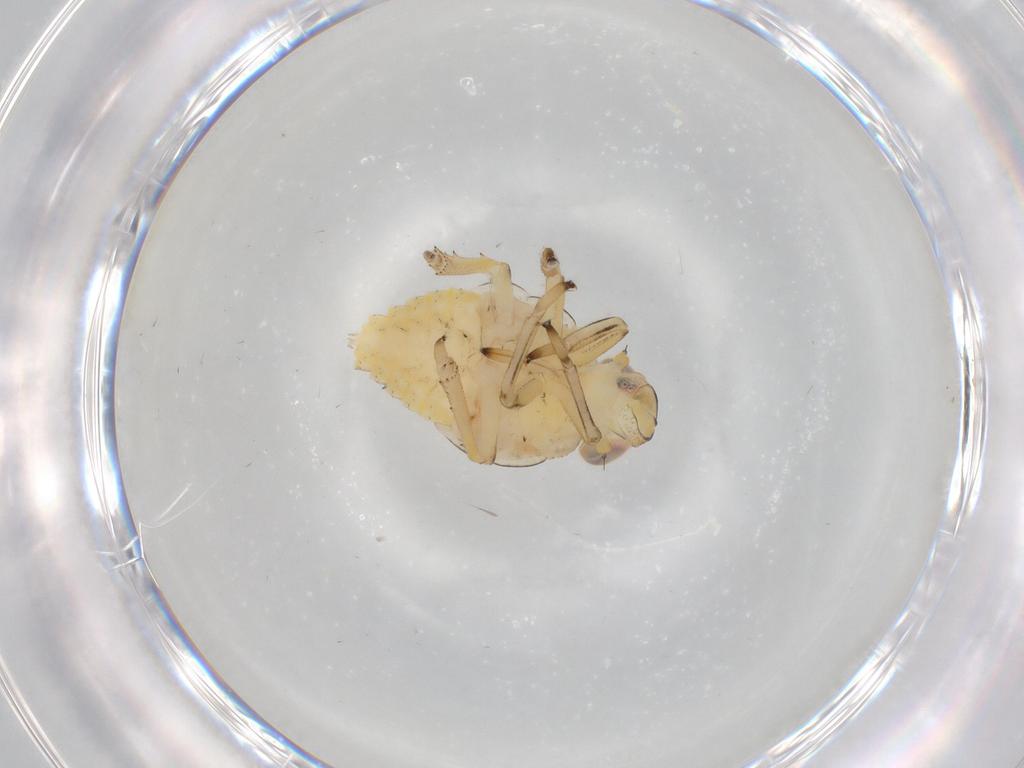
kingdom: Animalia
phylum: Arthropoda
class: Insecta
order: Hemiptera
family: Issidae
